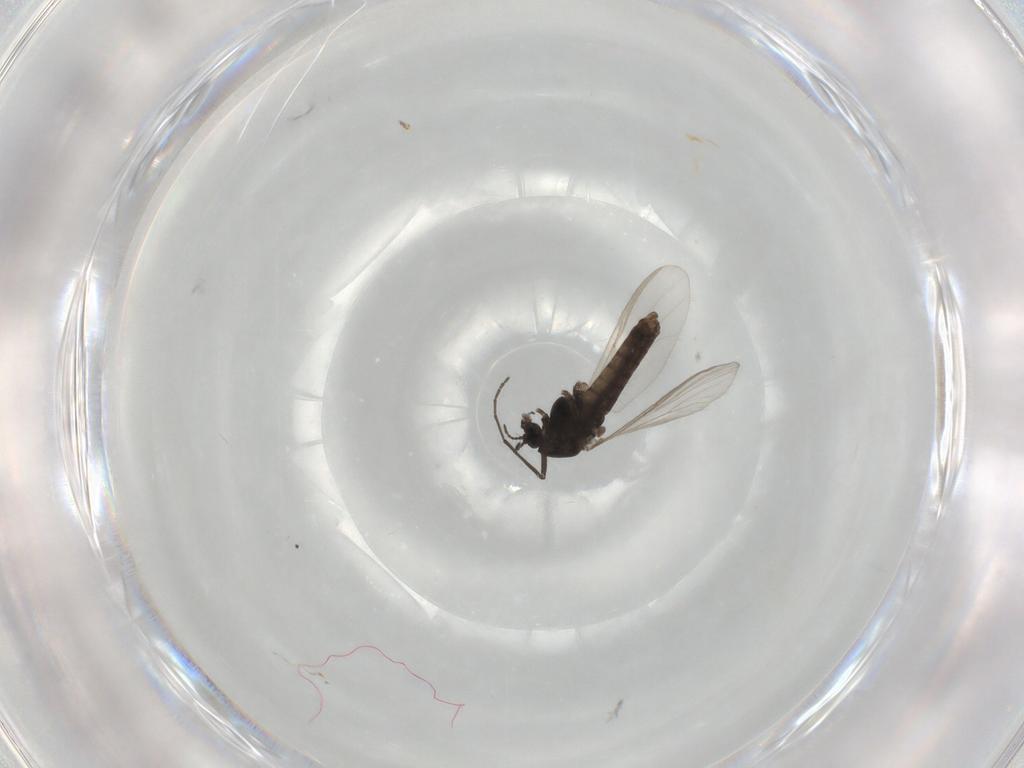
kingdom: Animalia
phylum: Arthropoda
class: Insecta
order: Diptera
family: Chironomidae
